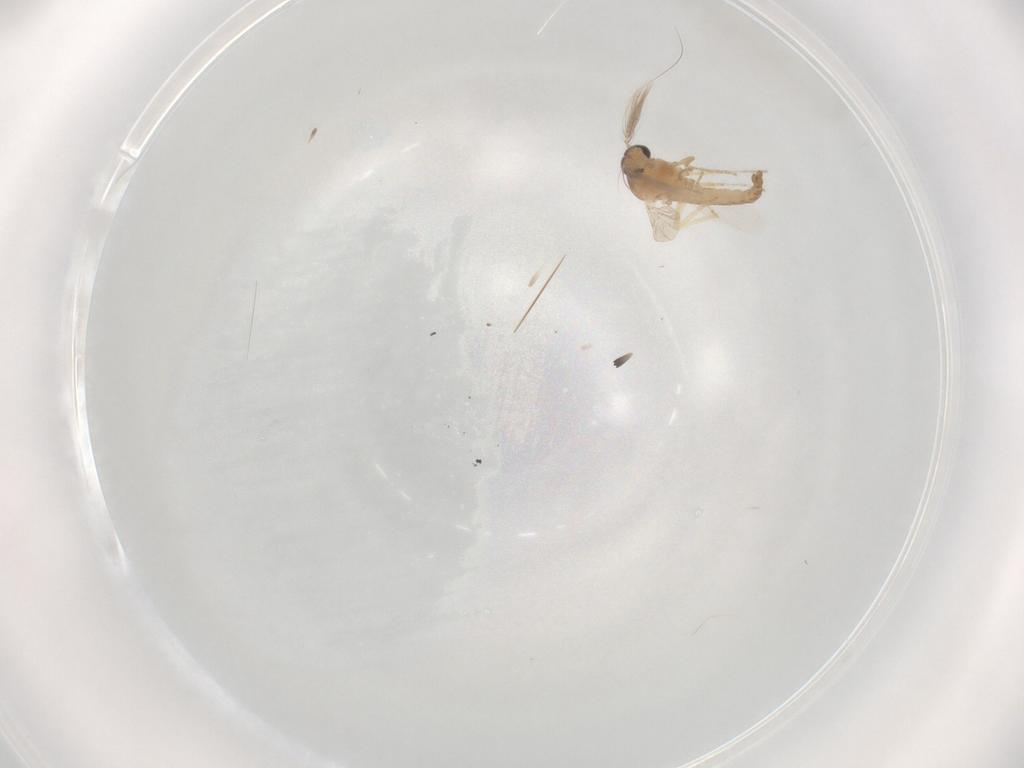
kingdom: Animalia
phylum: Arthropoda
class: Insecta
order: Diptera
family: Ceratopogonidae
